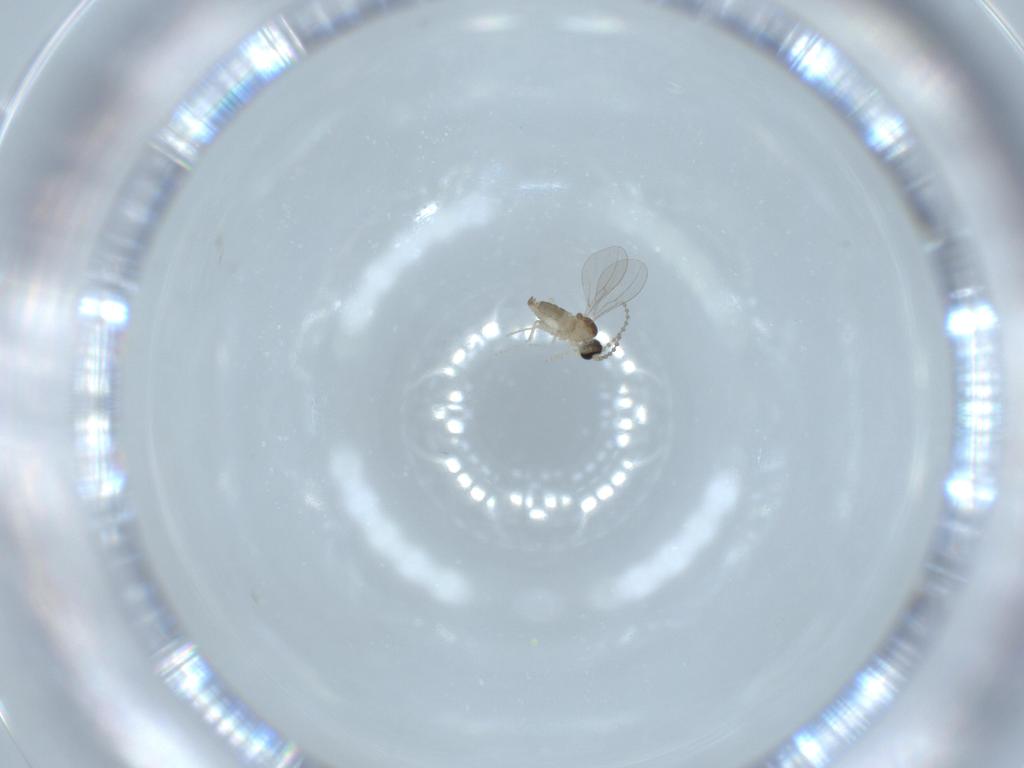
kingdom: Animalia
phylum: Arthropoda
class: Insecta
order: Diptera
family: Cecidomyiidae
